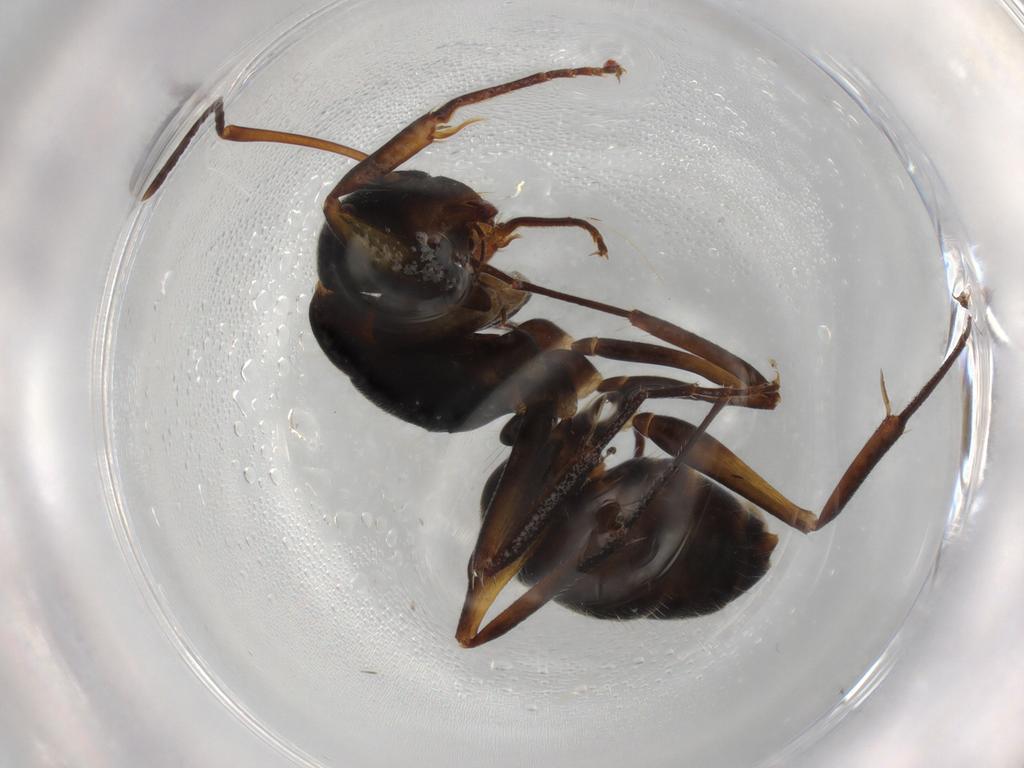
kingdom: Animalia
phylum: Arthropoda
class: Insecta
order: Hymenoptera
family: Formicidae
